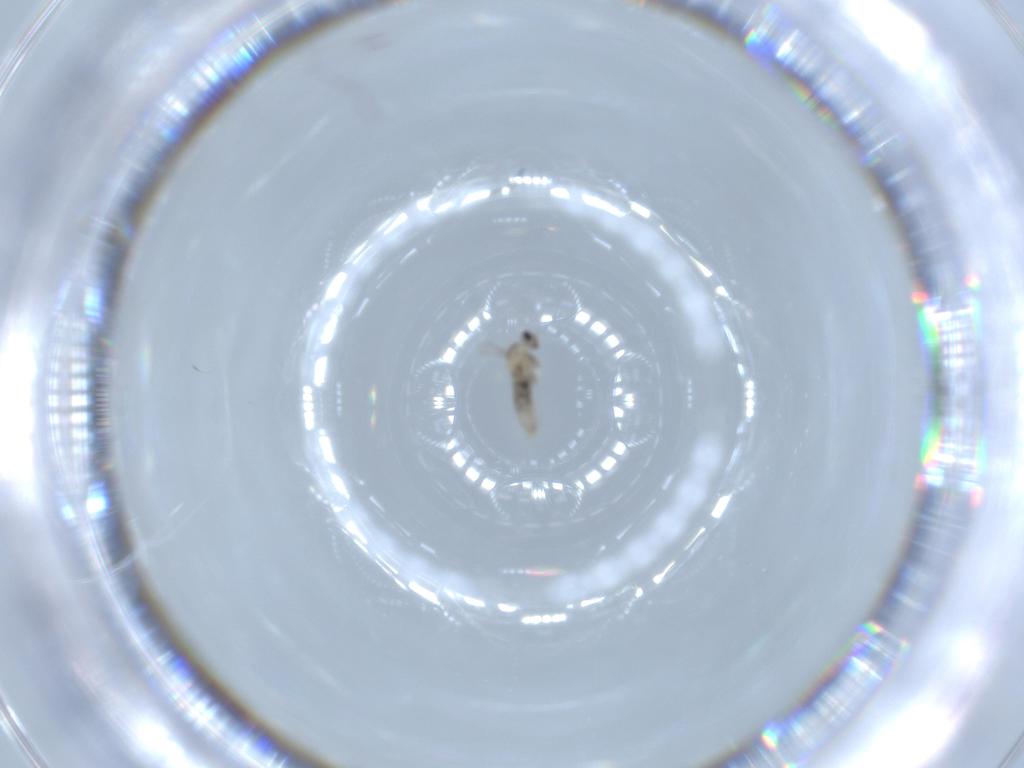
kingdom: Animalia
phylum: Arthropoda
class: Insecta
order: Diptera
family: Cecidomyiidae
